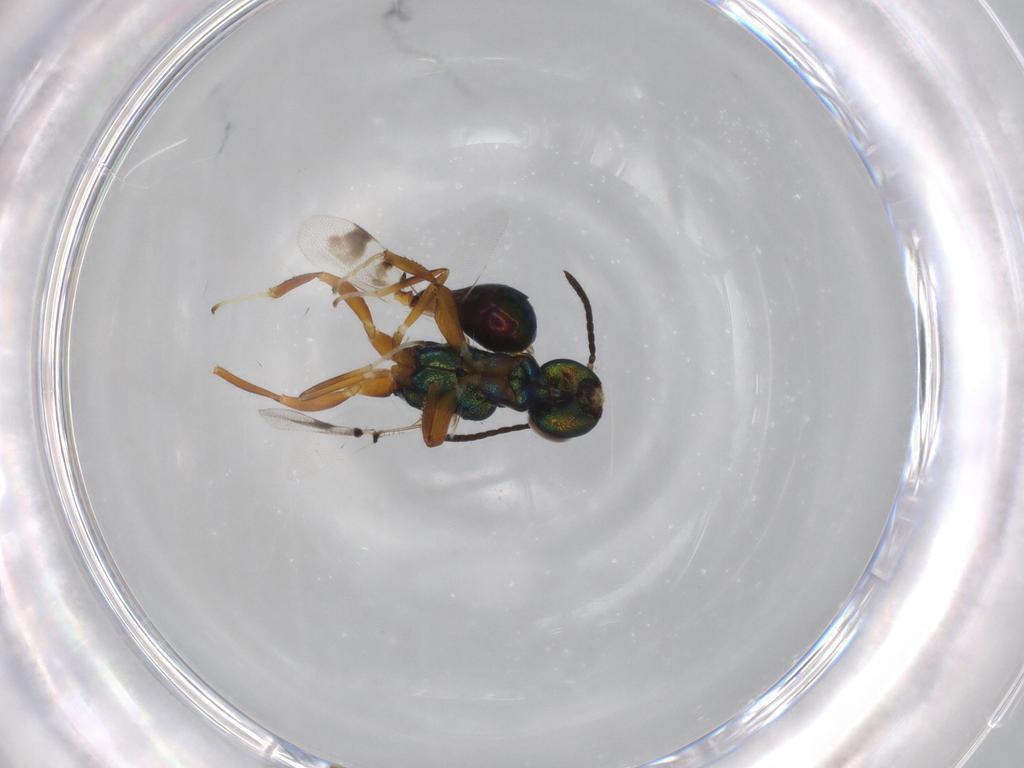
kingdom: Animalia
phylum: Arthropoda
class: Insecta
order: Hymenoptera
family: Eulophidae
